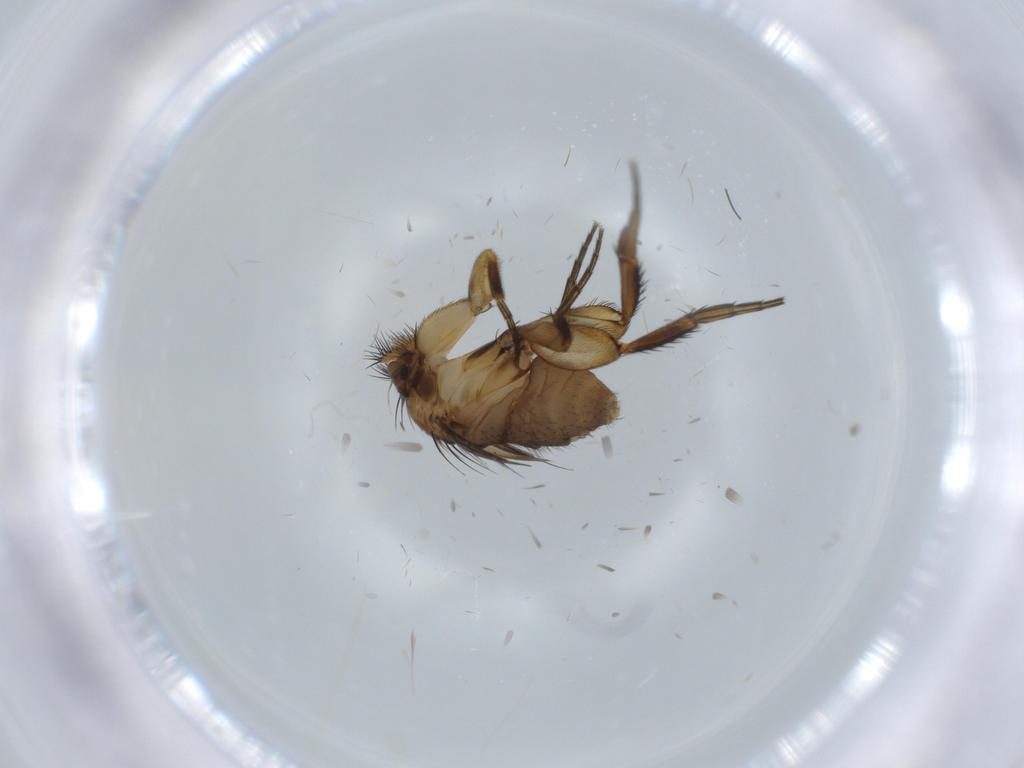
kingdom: Animalia
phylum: Arthropoda
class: Insecta
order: Diptera
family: Psychodidae
